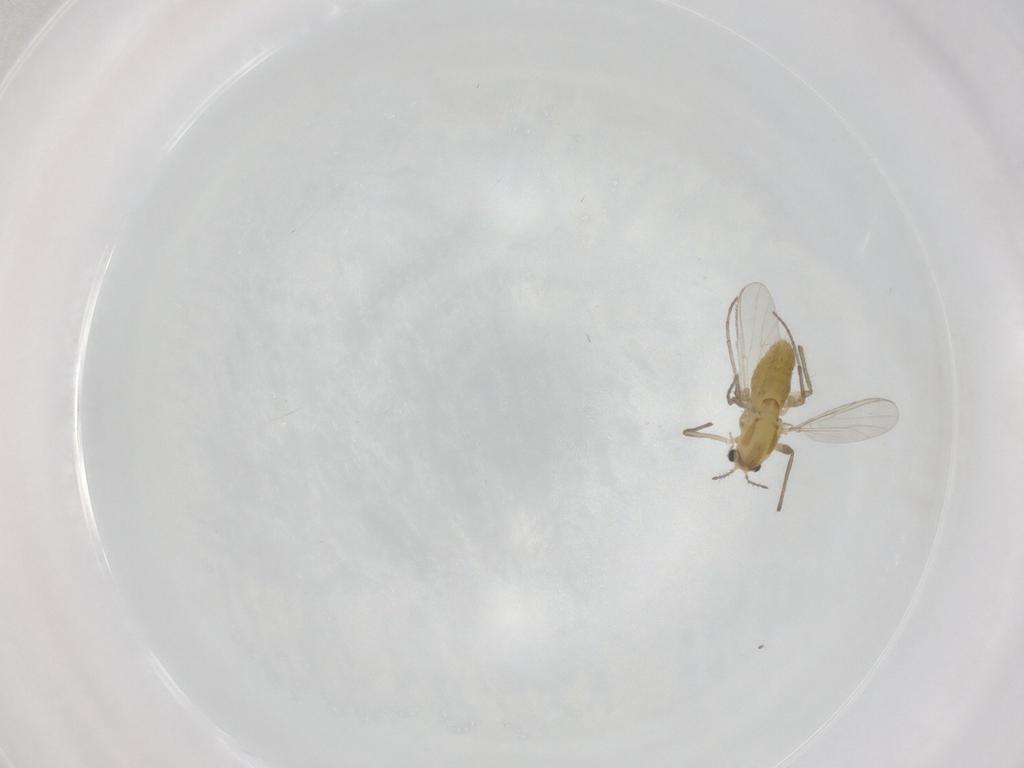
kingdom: Animalia
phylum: Arthropoda
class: Insecta
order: Diptera
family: Chironomidae
